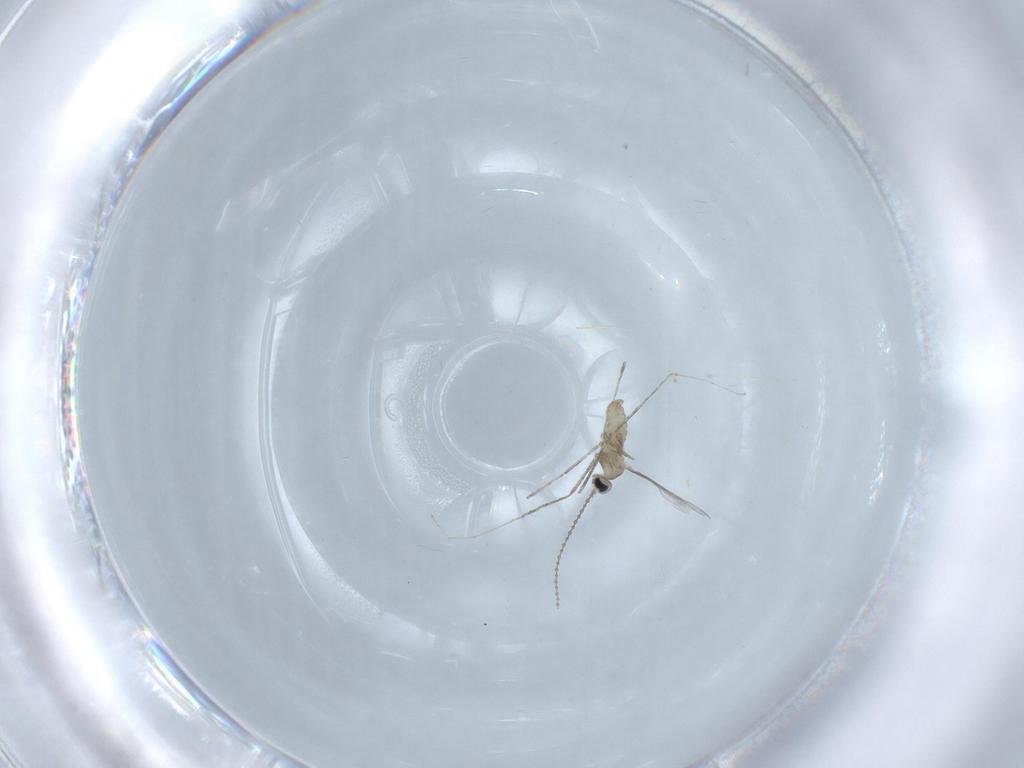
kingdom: Animalia
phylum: Arthropoda
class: Insecta
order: Diptera
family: Cecidomyiidae
